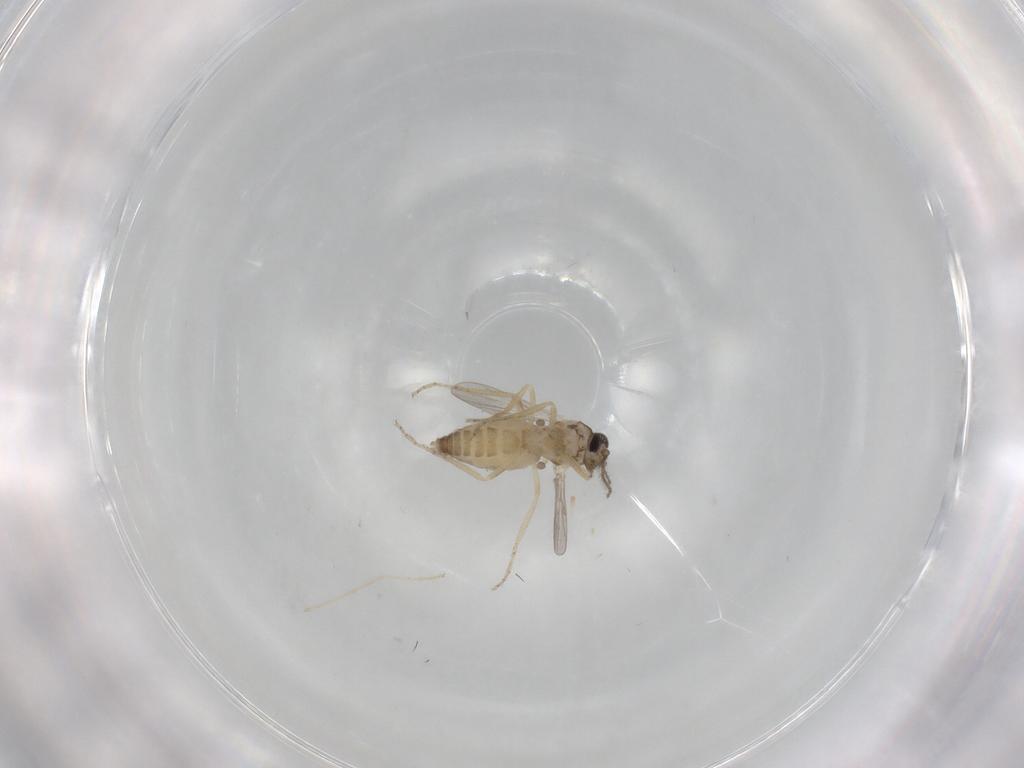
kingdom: Animalia
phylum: Arthropoda
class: Insecta
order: Diptera
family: Ceratopogonidae
